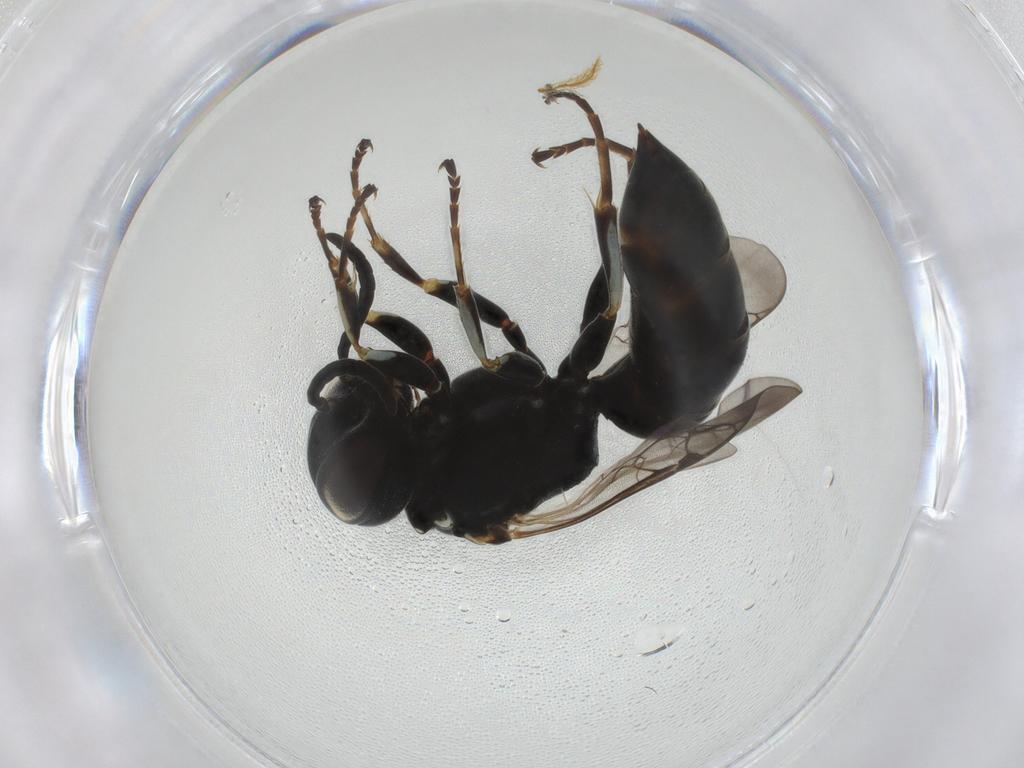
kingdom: Animalia
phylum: Arthropoda
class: Insecta
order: Hymenoptera
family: Crabronidae
